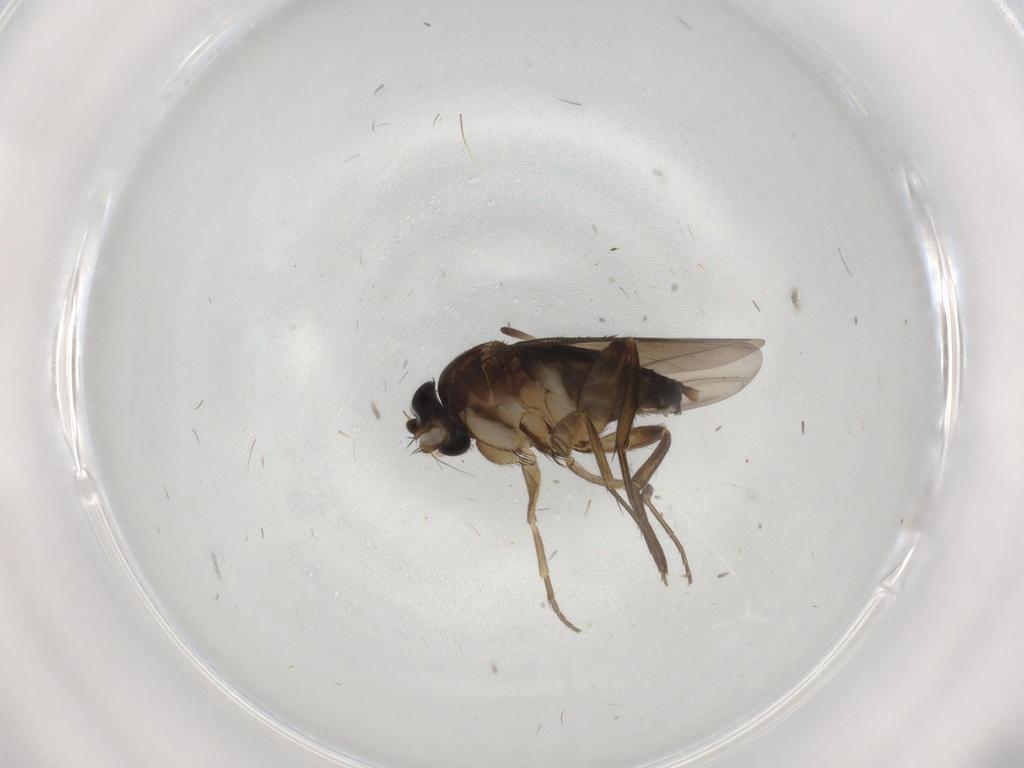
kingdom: Animalia
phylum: Arthropoda
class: Insecta
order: Diptera
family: Phoridae
